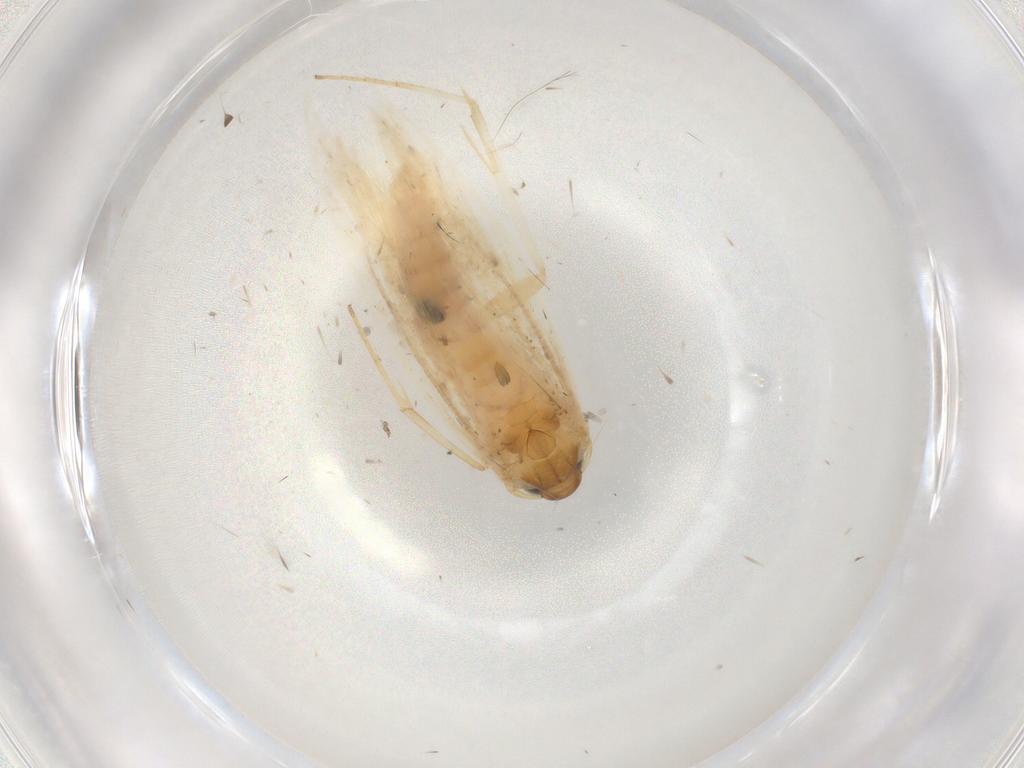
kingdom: Animalia
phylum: Arthropoda
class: Insecta
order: Lepidoptera
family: Gelechiidae
